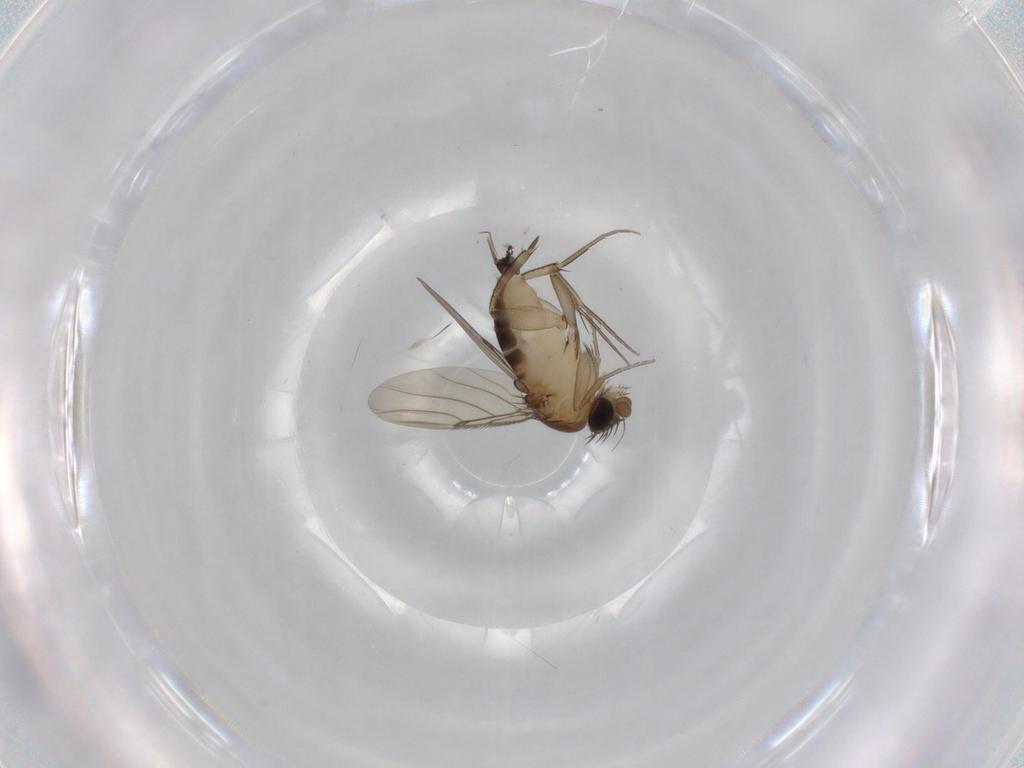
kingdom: Animalia
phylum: Arthropoda
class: Insecta
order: Diptera
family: Phoridae
